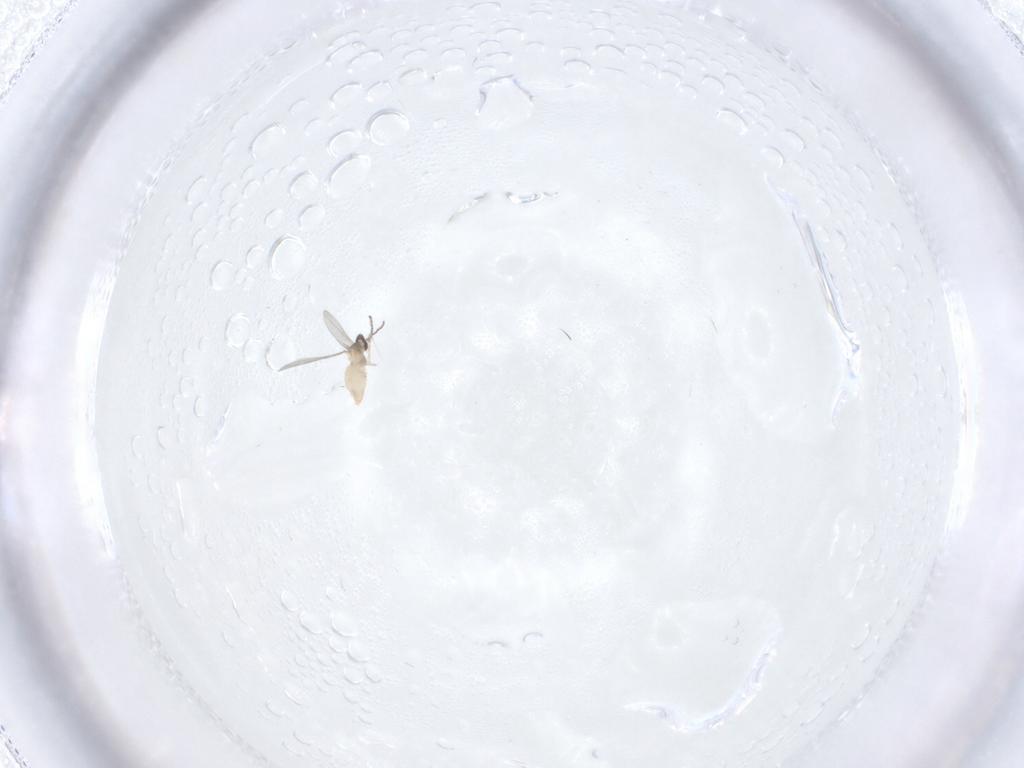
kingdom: Animalia
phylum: Arthropoda
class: Insecta
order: Diptera
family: Cecidomyiidae
